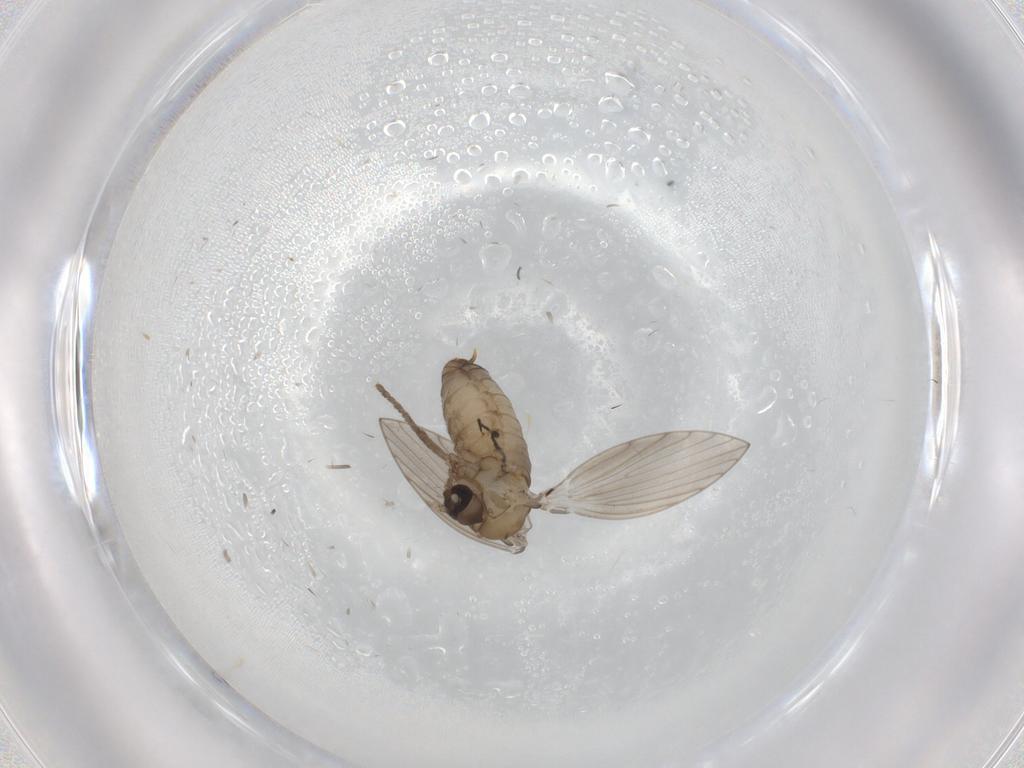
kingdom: Animalia
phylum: Arthropoda
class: Insecta
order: Diptera
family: Psychodidae
